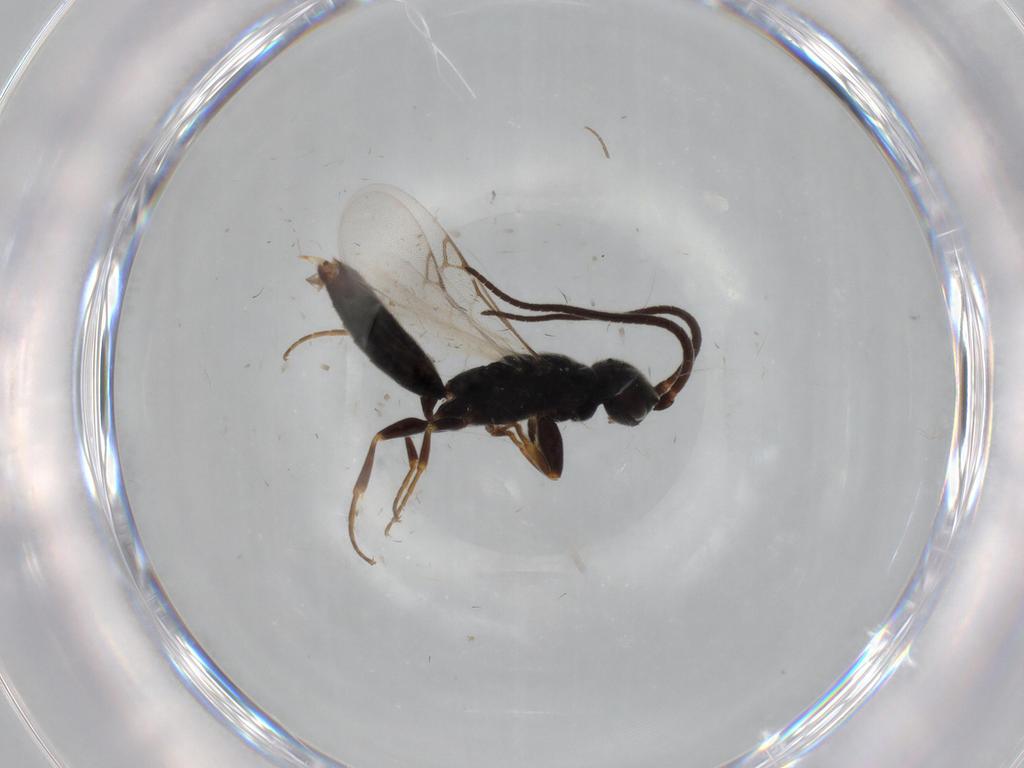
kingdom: Animalia
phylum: Arthropoda
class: Insecta
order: Hymenoptera
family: Sclerogibbidae
